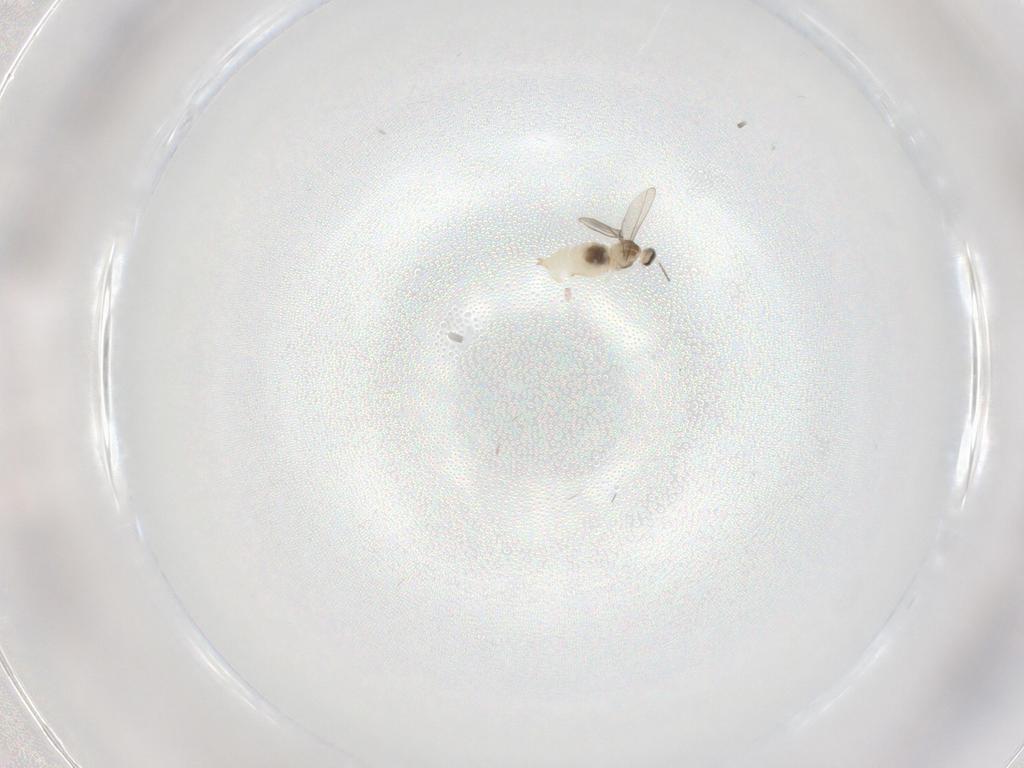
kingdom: Animalia
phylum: Arthropoda
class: Insecta
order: Diptera
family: Cecidomyiidae
